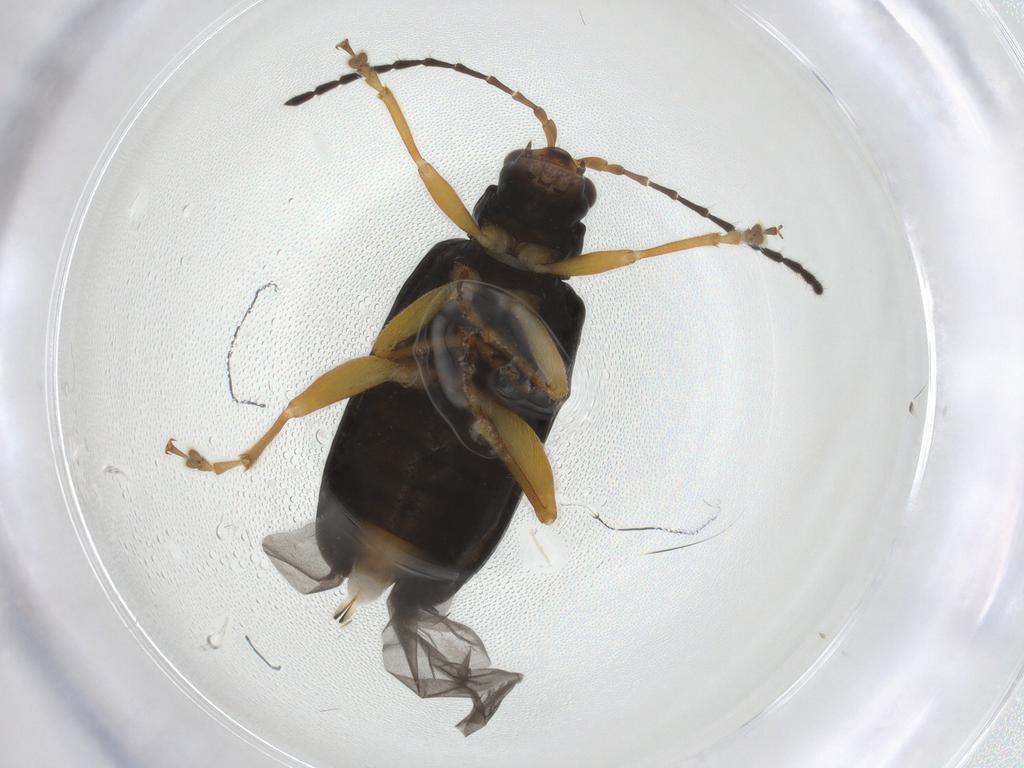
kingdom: Animalia
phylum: Arthropoda
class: Insecta
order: Coleoptera
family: Chrysomelidae
